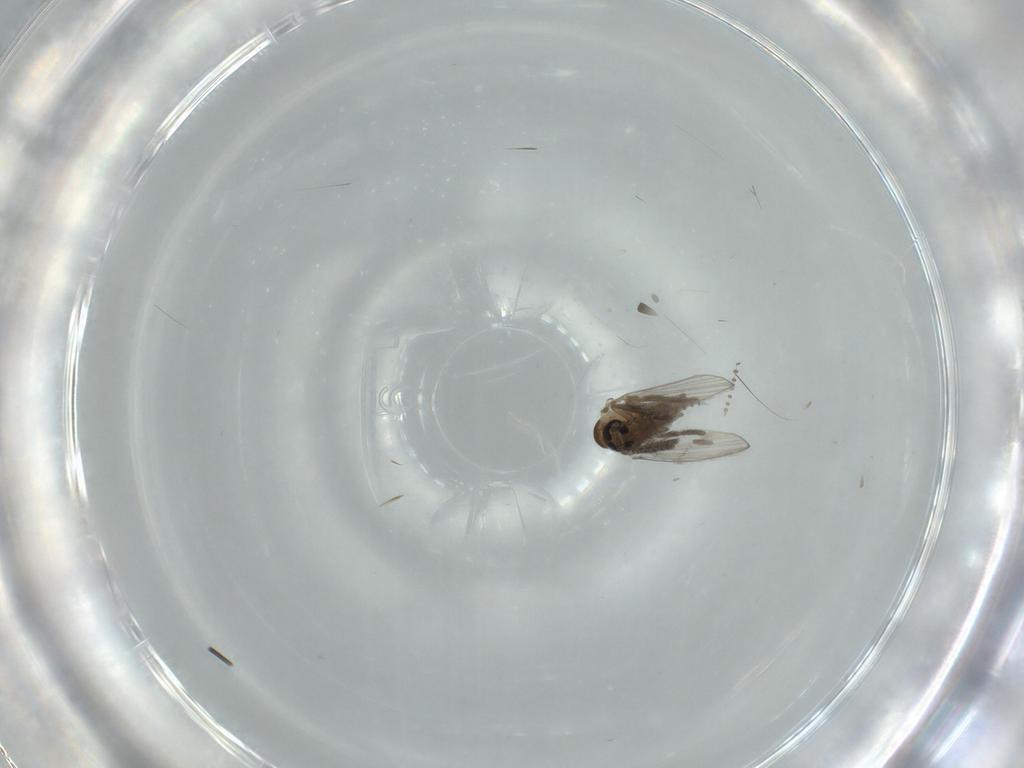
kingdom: Animalia
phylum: Arthropoda
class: Insecta
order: Diptera
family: Psychodidae
